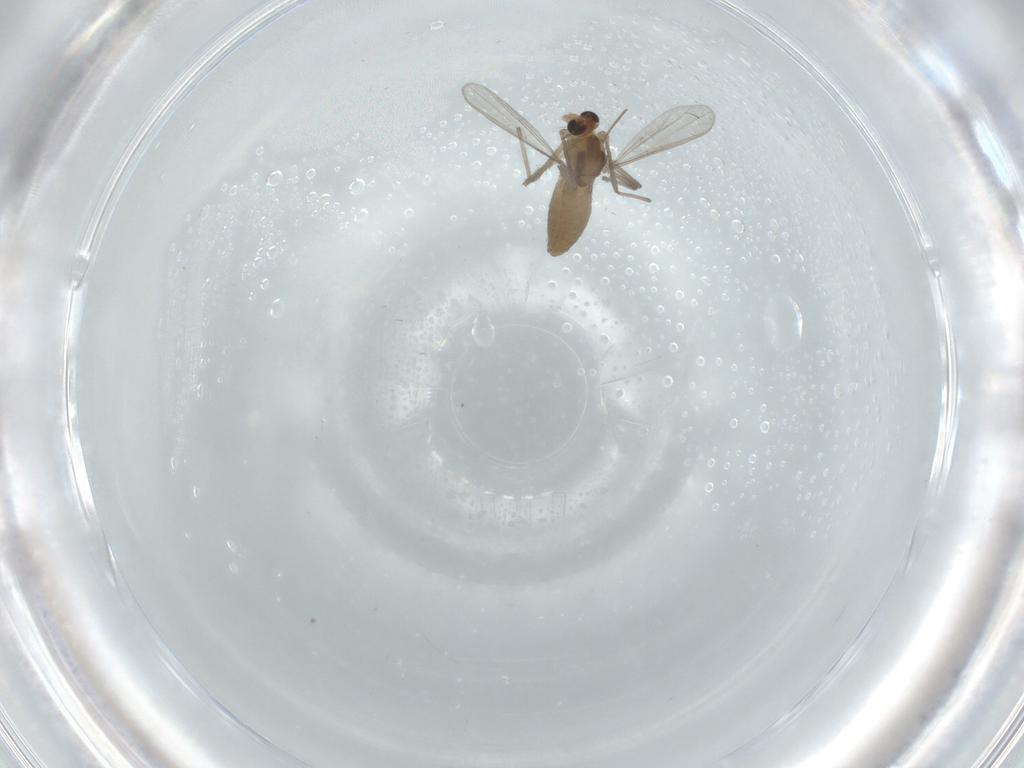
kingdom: Animalia
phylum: Arthropoda
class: Insecta
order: Diptera
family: Chironomidae
